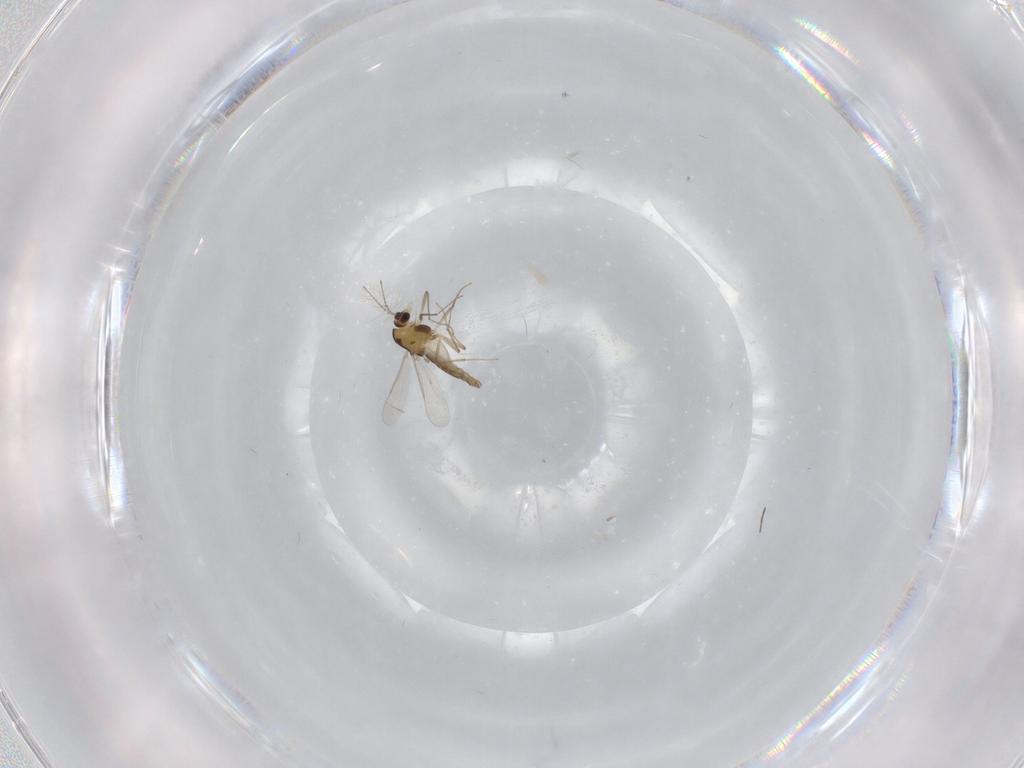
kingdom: Animalia
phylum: Arthropoda
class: Insecta
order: Diptera
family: Chironomidae
